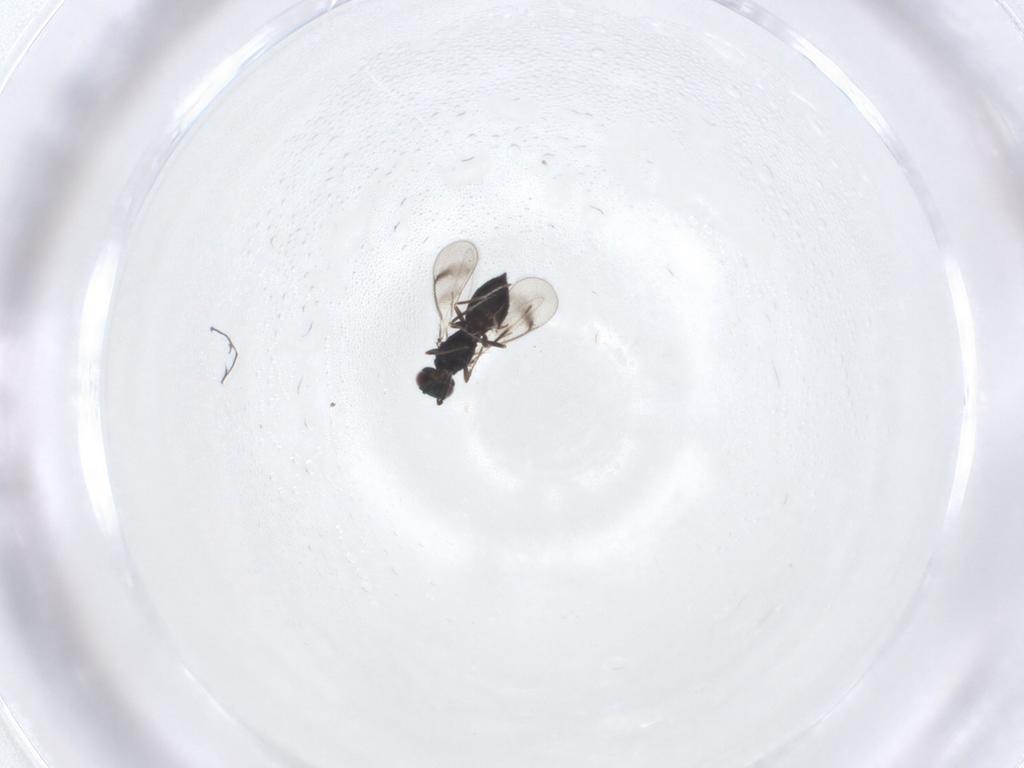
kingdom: Animalia
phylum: Arthropoda
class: Insecta
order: Hymenoptera
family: Eulophidae
